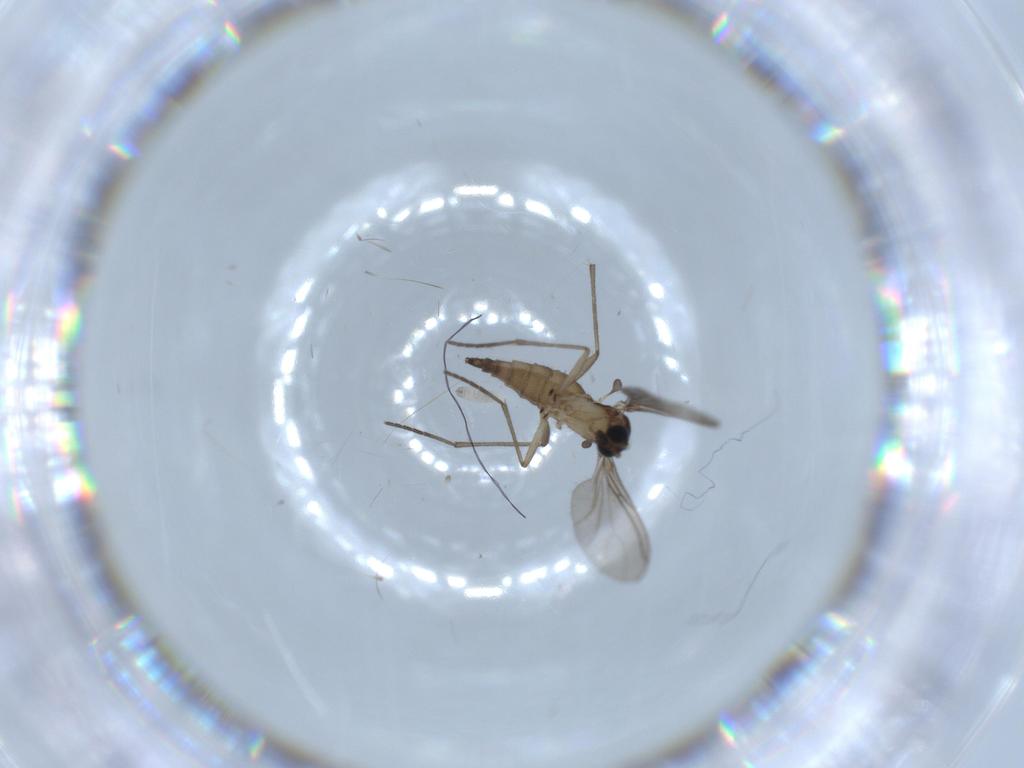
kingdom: Animalia
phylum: Arthropoda
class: Insecta
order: Diptera
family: Sciaridae
